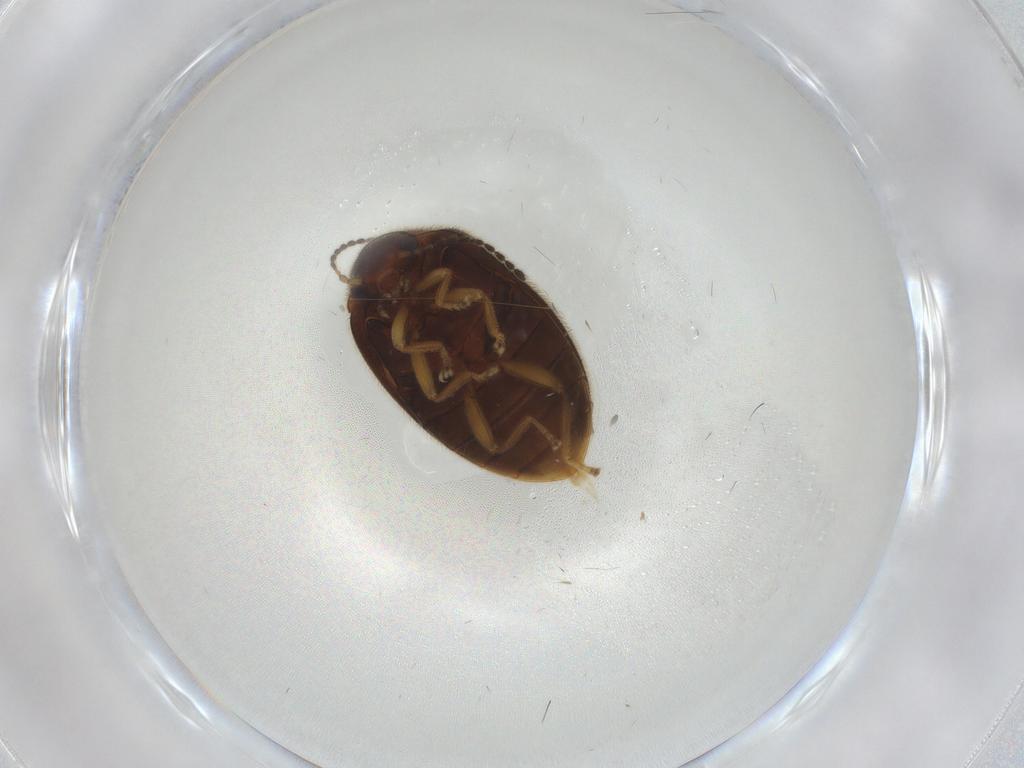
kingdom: Animalia
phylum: Arthropoda
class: Insecta
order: Coleoptera
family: Scirtidae
